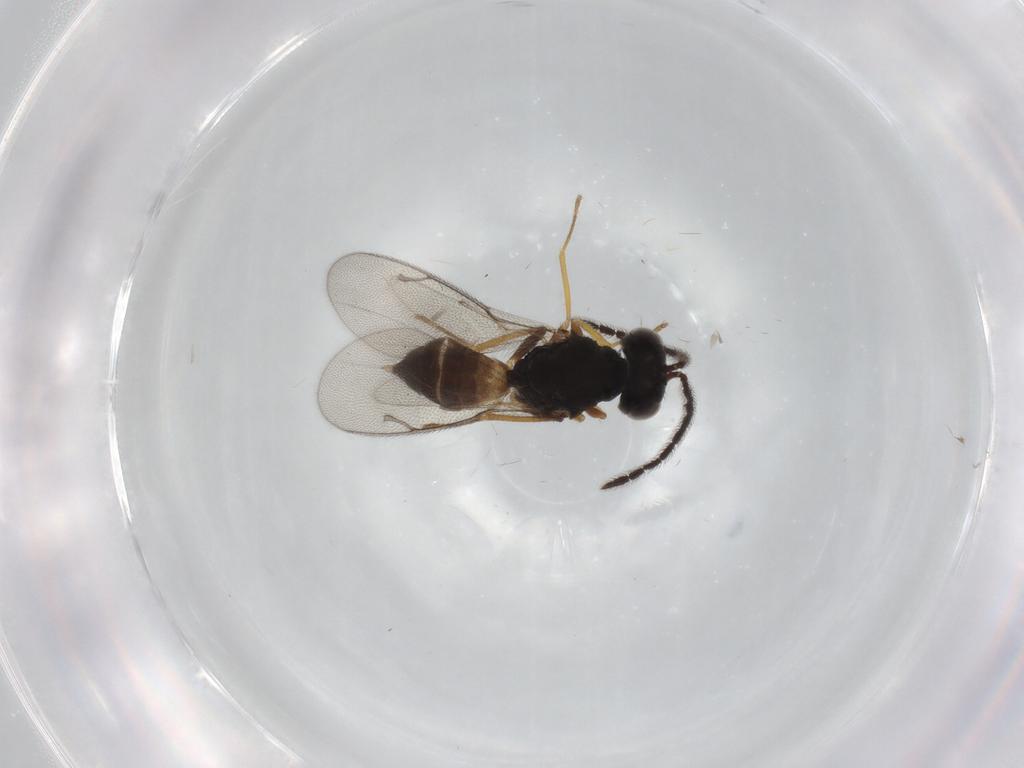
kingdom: Animalia
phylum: Arthropoda
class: Insecta
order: Hymenoptera
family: Pteromalidae
